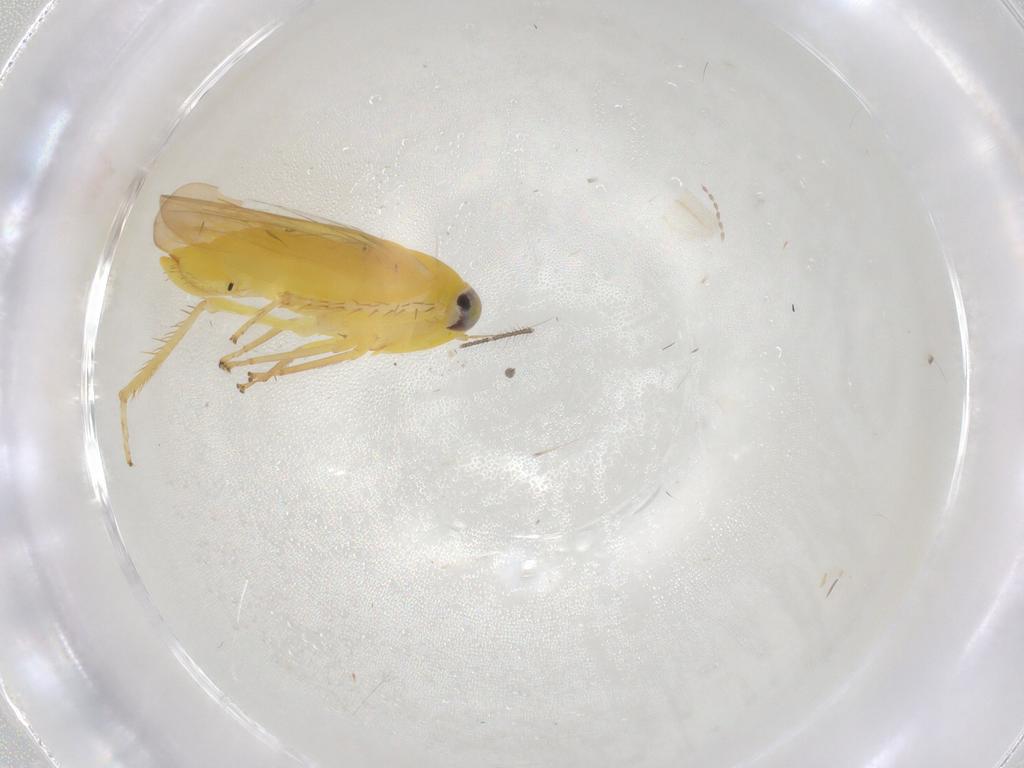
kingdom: Animalia
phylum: Arthropoda
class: Insecta
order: Hemiptera
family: Cicadellidae
